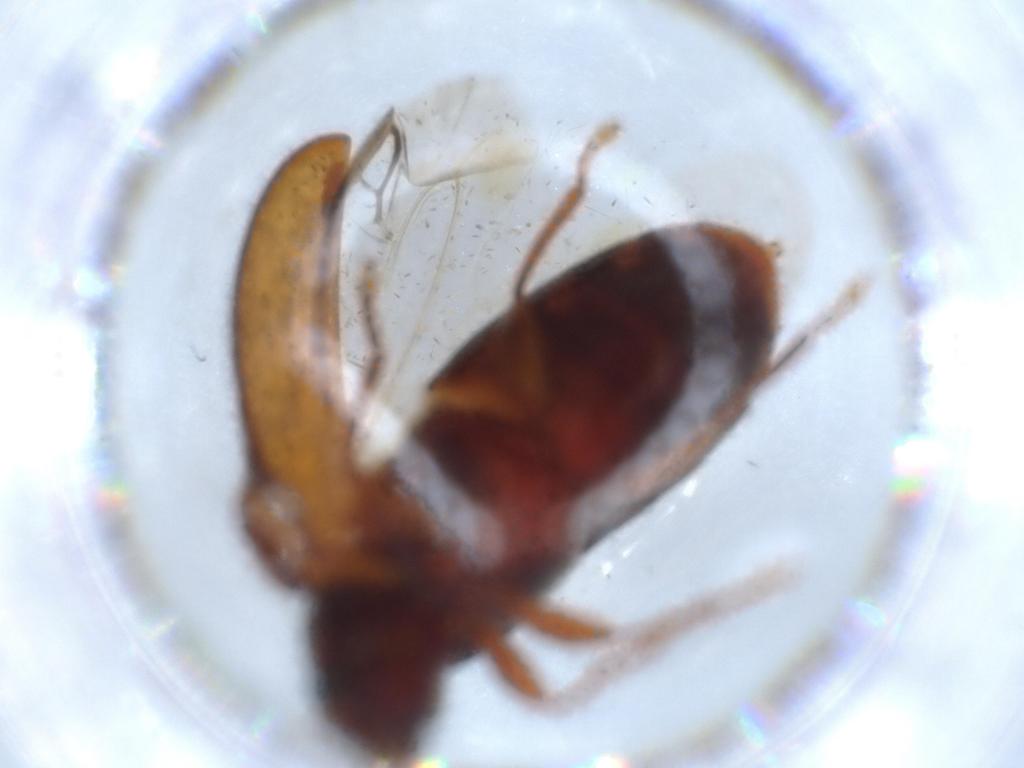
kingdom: Animalia
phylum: Arthropoda
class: Insecta
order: Coleoptera
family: Mycteridae
